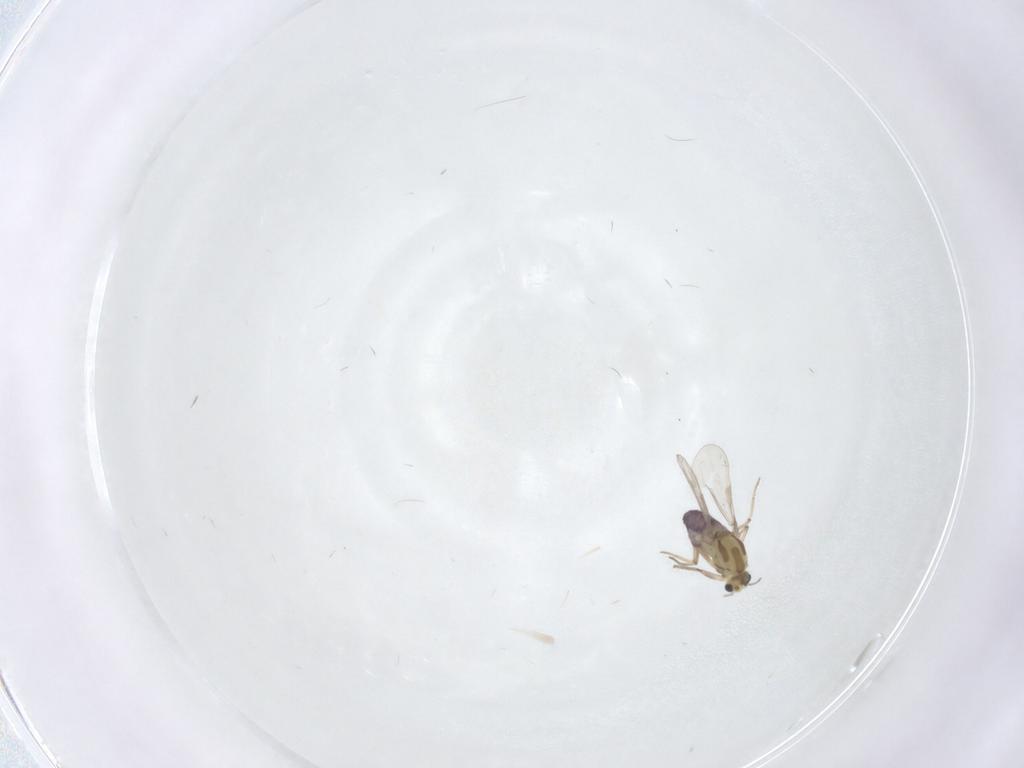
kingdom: Animalia
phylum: Arthropoda
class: Insecta
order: Diptera
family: Chironomidae
